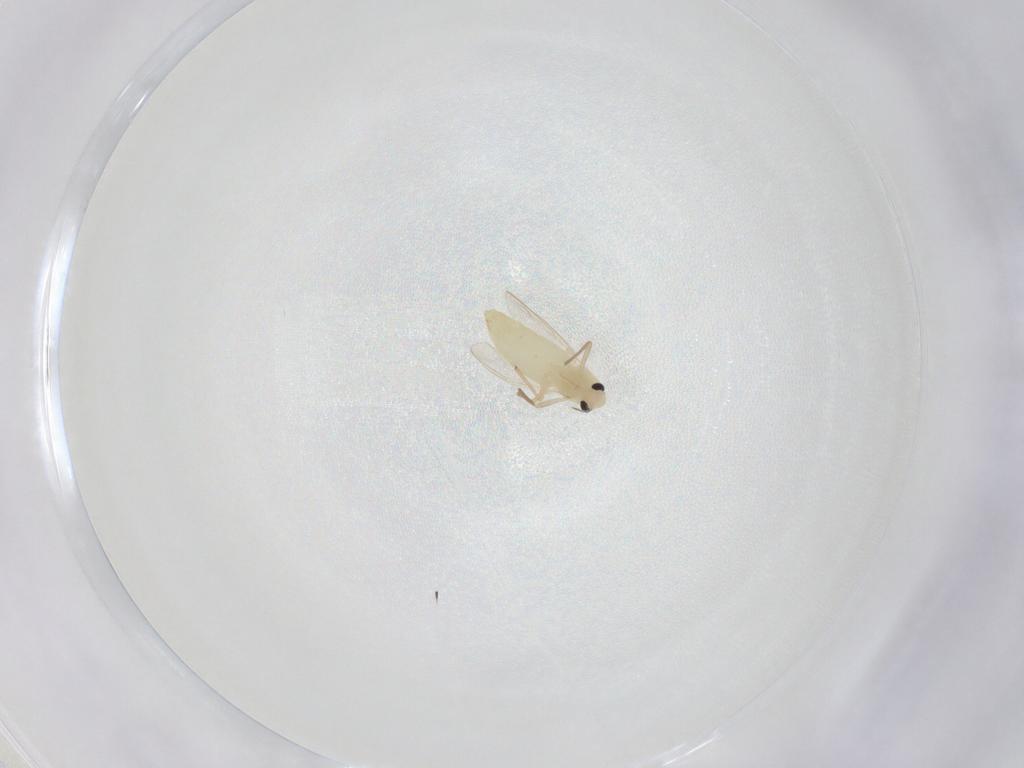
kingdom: Animalia
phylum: Arthropoda
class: Insecta
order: Diptera
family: Chironomidae
